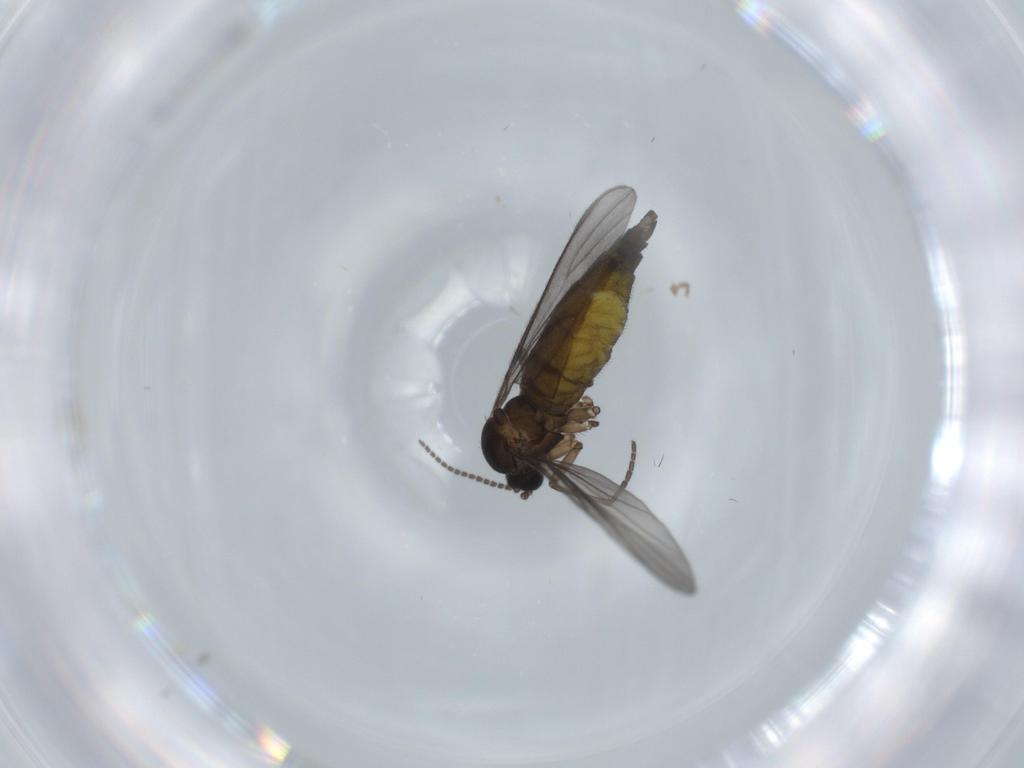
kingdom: Animalia
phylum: Arthropoda
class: Insecta
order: Diptera
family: Sciaridae
